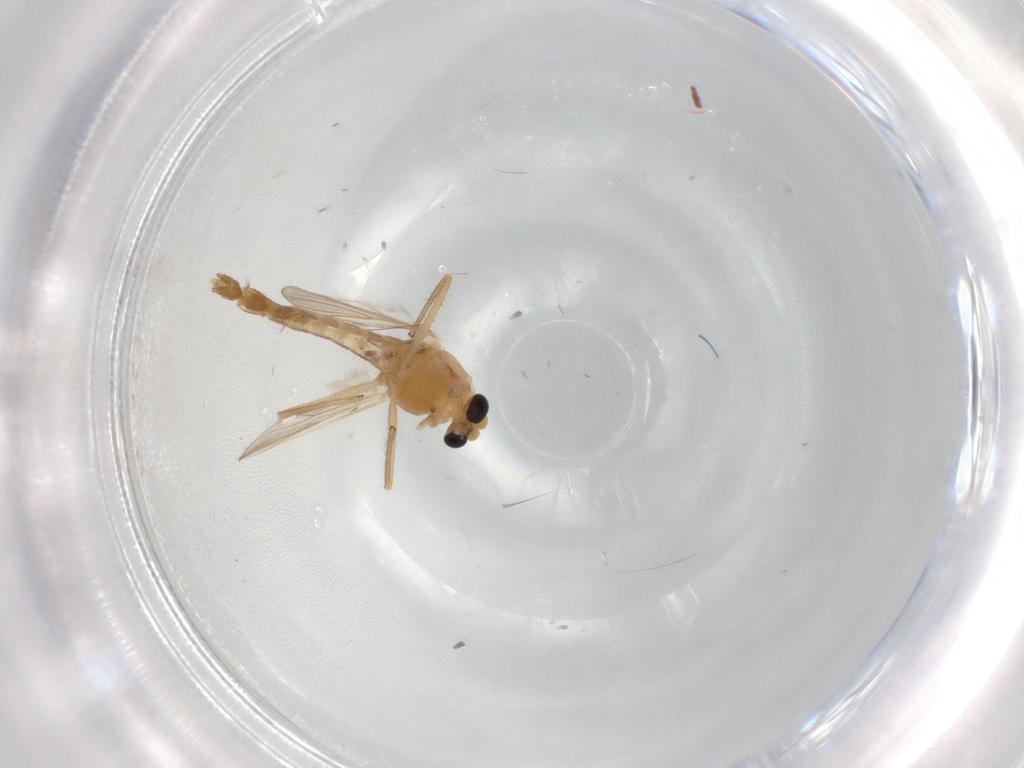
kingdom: Animalia
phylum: Arthropoda
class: Insecta
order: Diptera
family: Chironomidae
